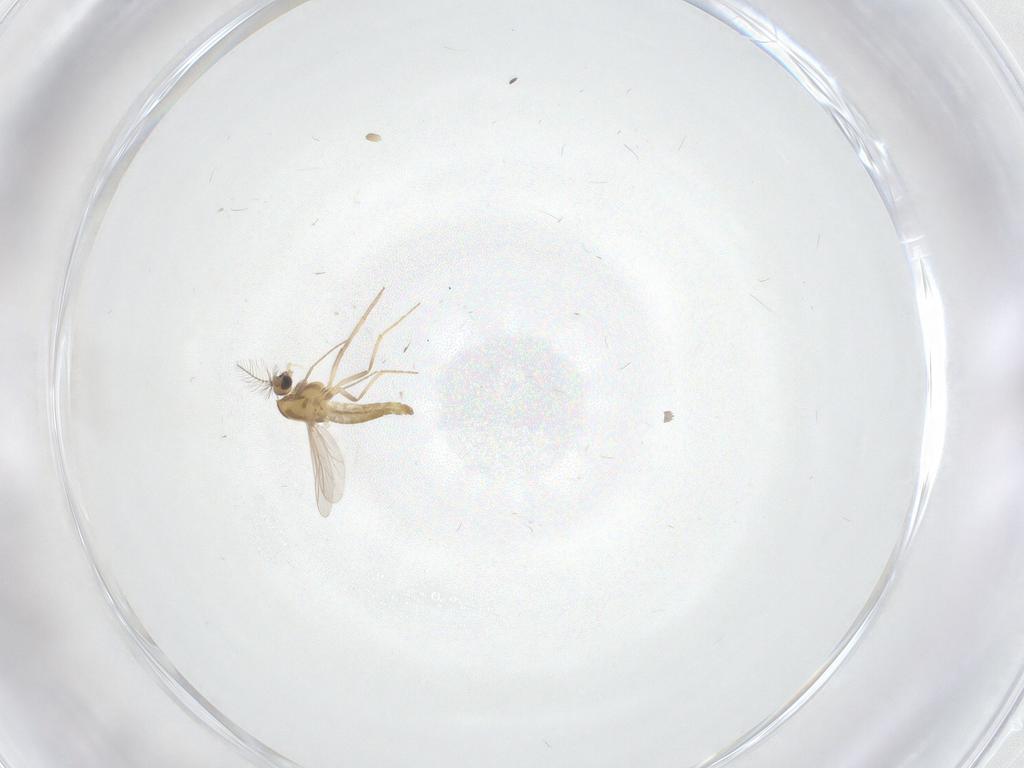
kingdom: Animalia
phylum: Arthropoda
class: Insecta
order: Diptera
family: Chironomidae
